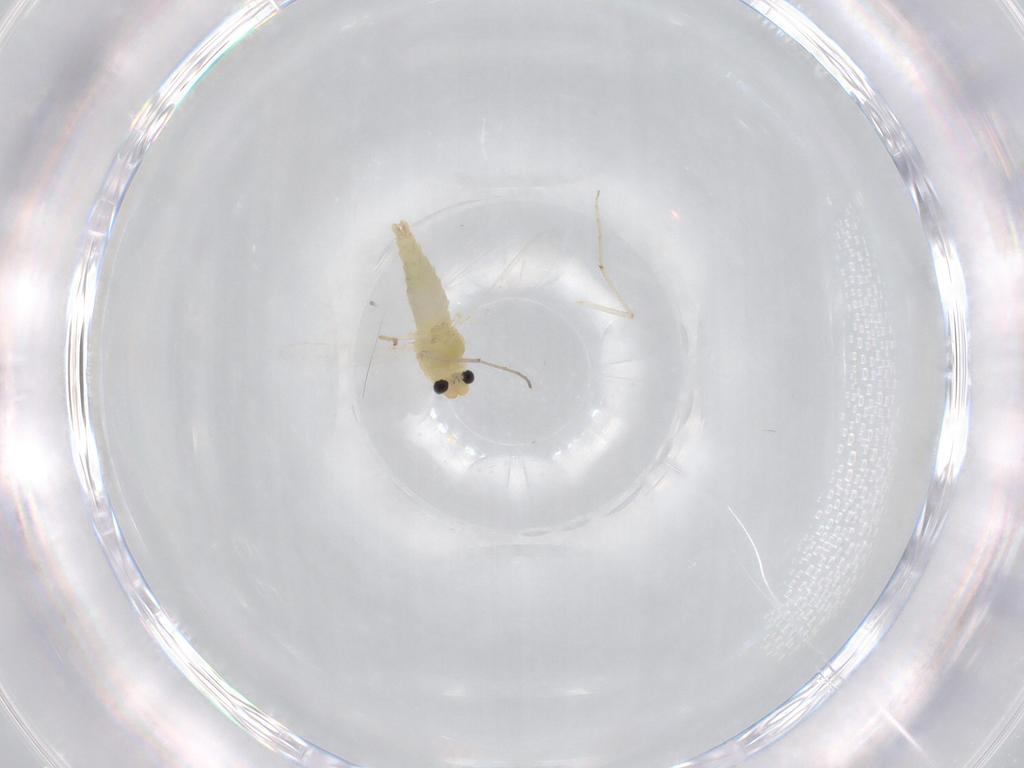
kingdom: Animalia
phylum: Arthropoda
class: Insecta
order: Diptera
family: Chironomidae
